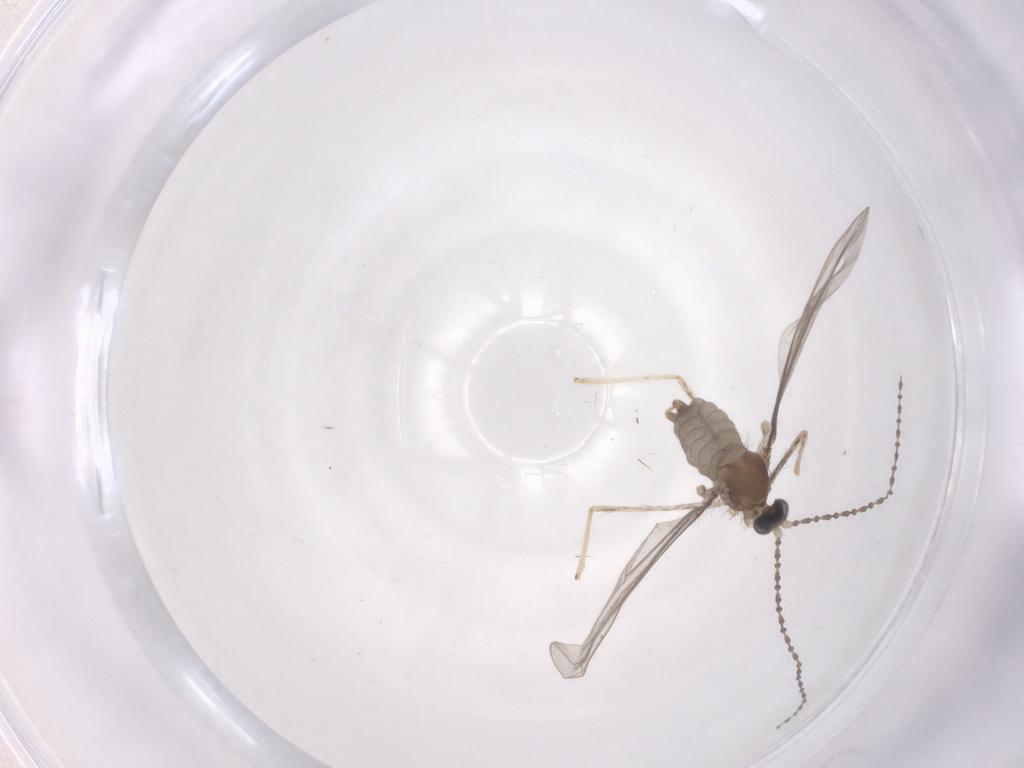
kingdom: Animalia
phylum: Arthropoda
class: Insecta
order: Diptera
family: Cecidomyiidae
